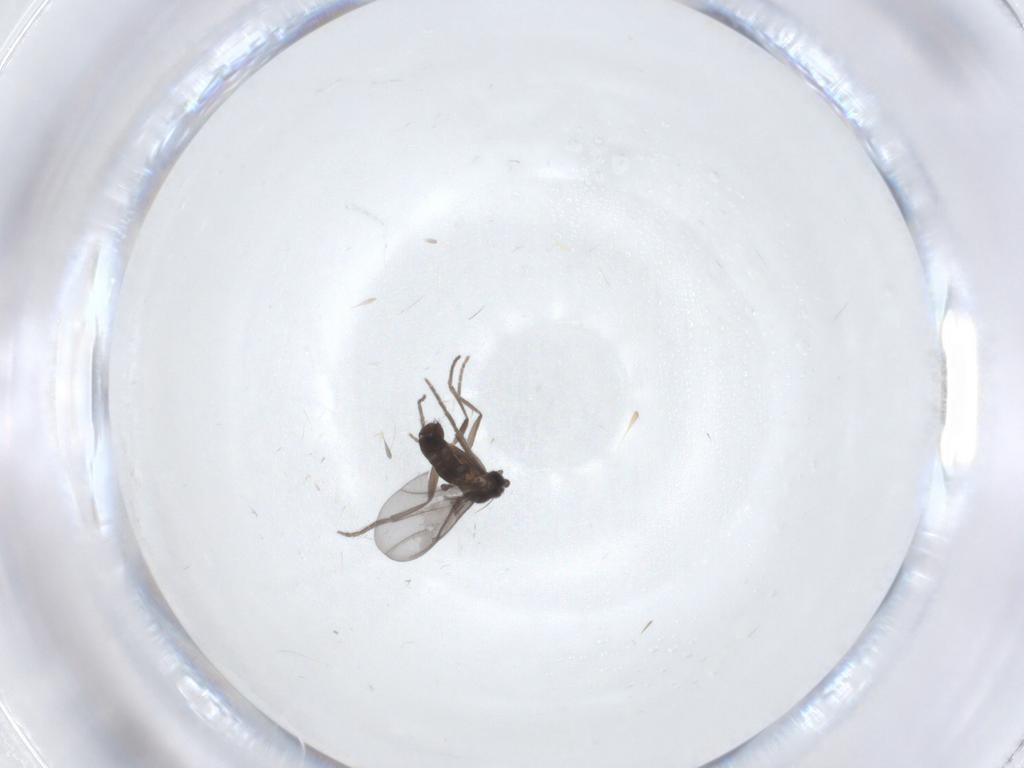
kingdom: Animalia
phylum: Arthropoda
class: Insecta
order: Diptera
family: Phoridae
